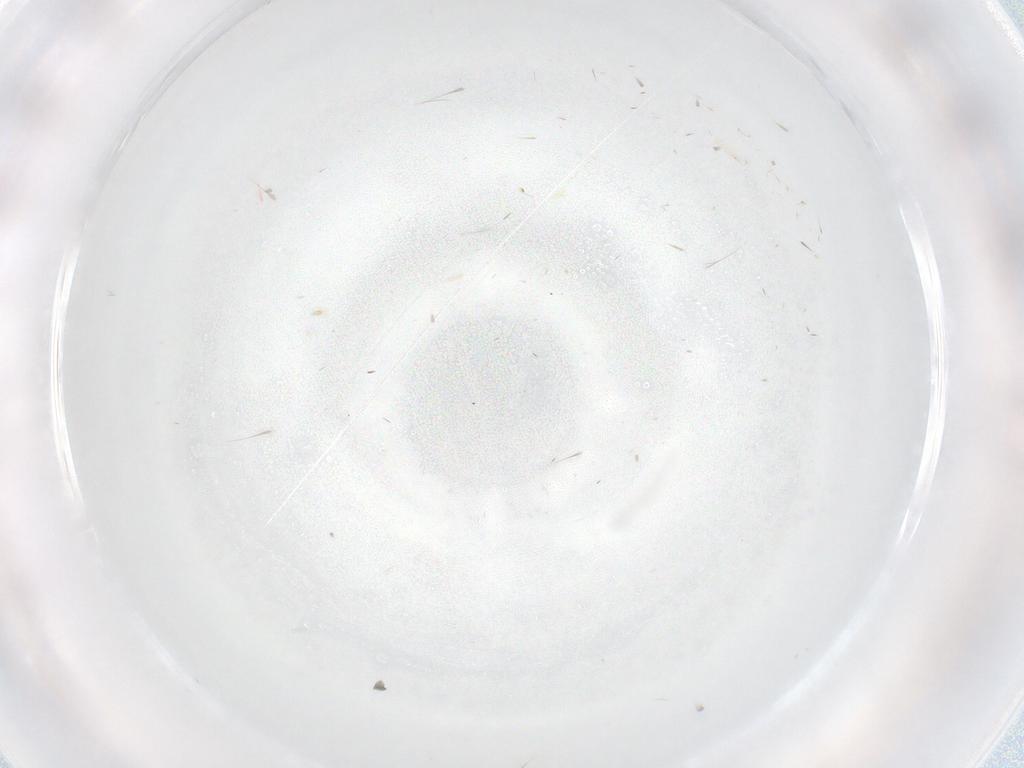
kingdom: Animalia
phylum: Arthropoda
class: Insecta
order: Hemiptera
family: Aleyrodidae
